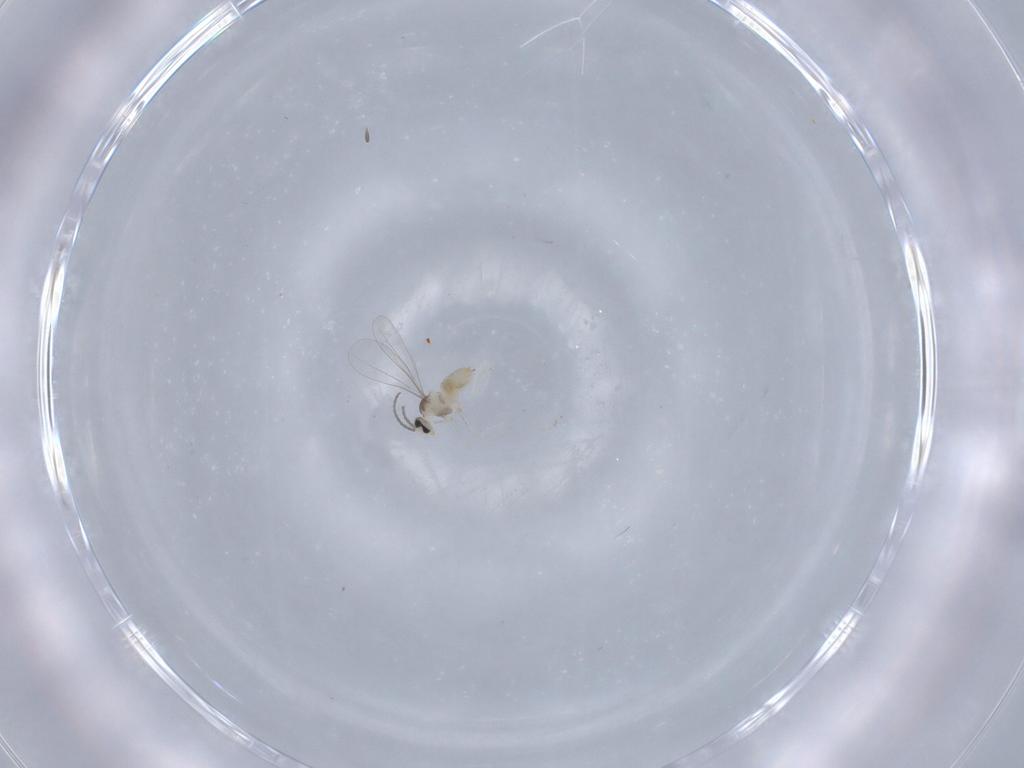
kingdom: Animalia
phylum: Arthropoda
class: Insecta
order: Diptera
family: Cecidomyiidae
